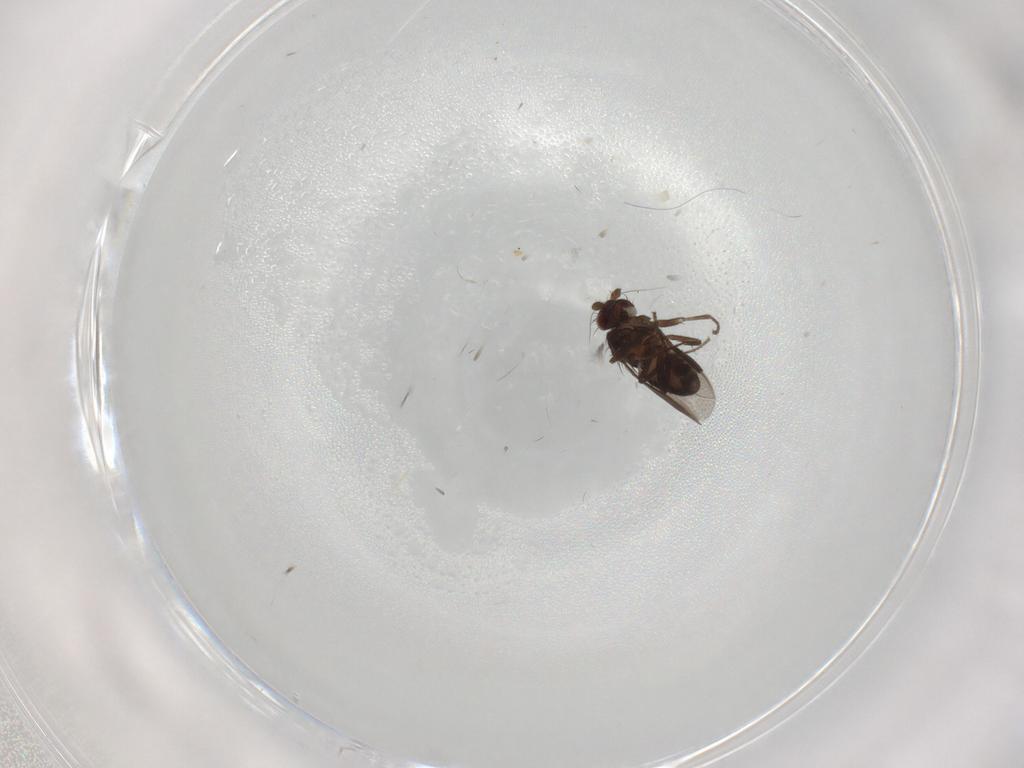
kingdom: Animalia
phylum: Arthropoda
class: Insecta
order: Diptera
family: Sphaeroceridae
